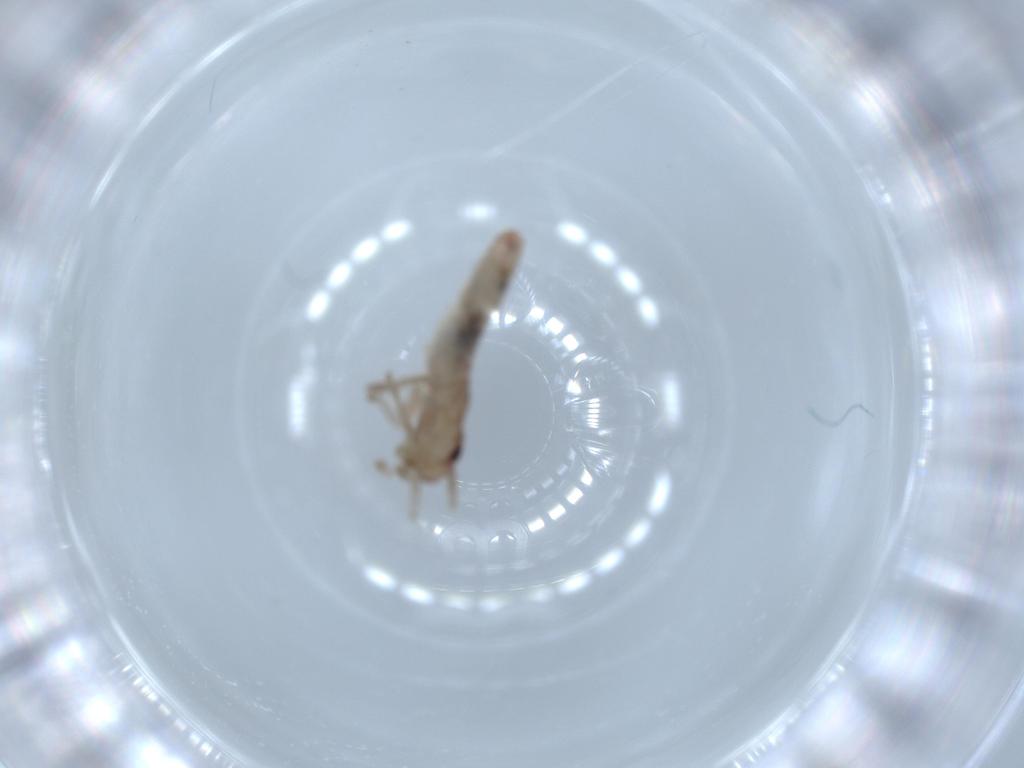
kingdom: Animalia
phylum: Arthropoda
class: Insecta
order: Orthoptera
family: Mogoplistidae
